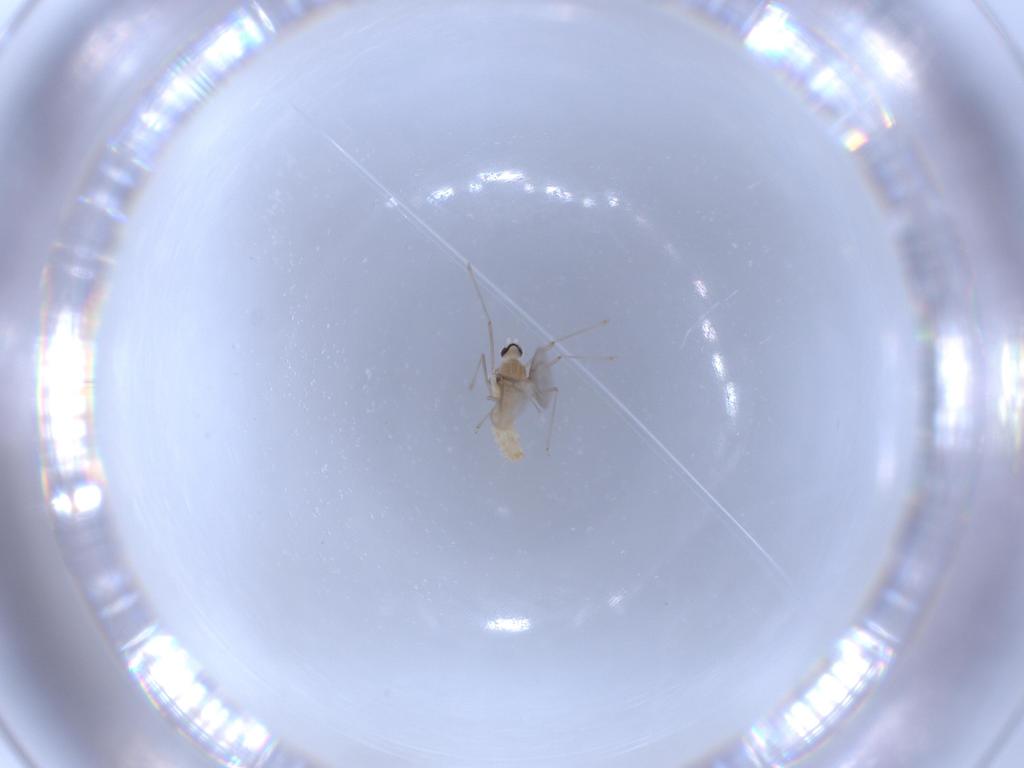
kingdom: Animalia
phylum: Arthropoda
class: Insecta
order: Diptera
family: Cecidomyiidae
